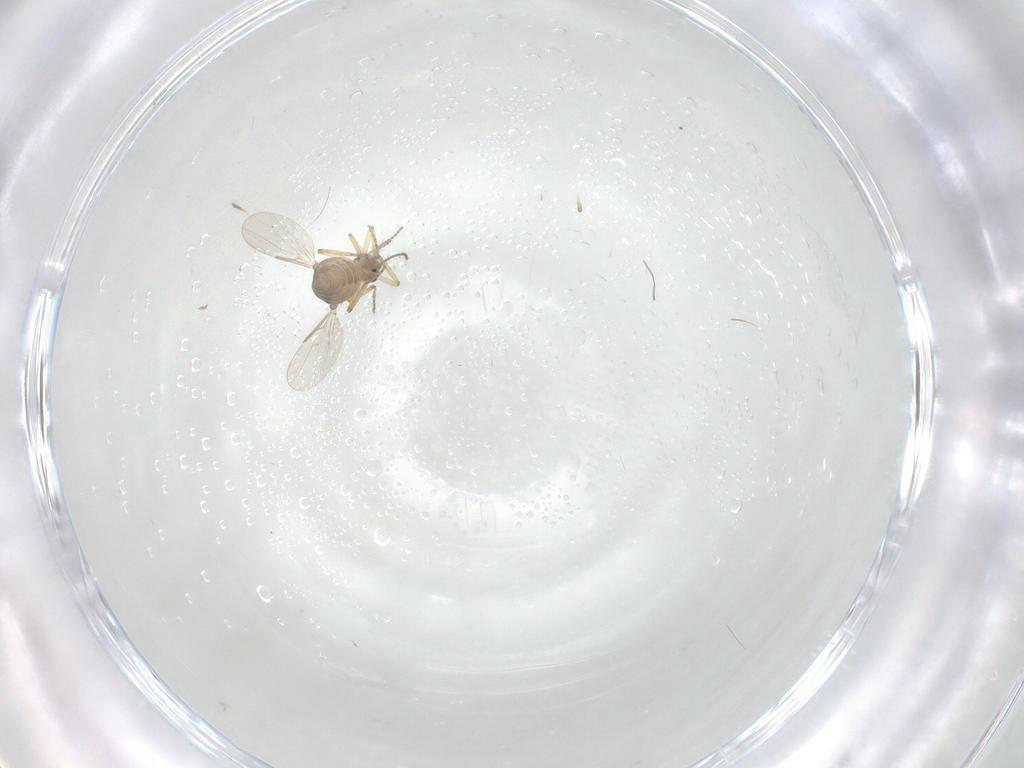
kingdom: Animalia
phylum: Arthropoda
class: Insecta
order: Diptera
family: Ceratopogonidae
